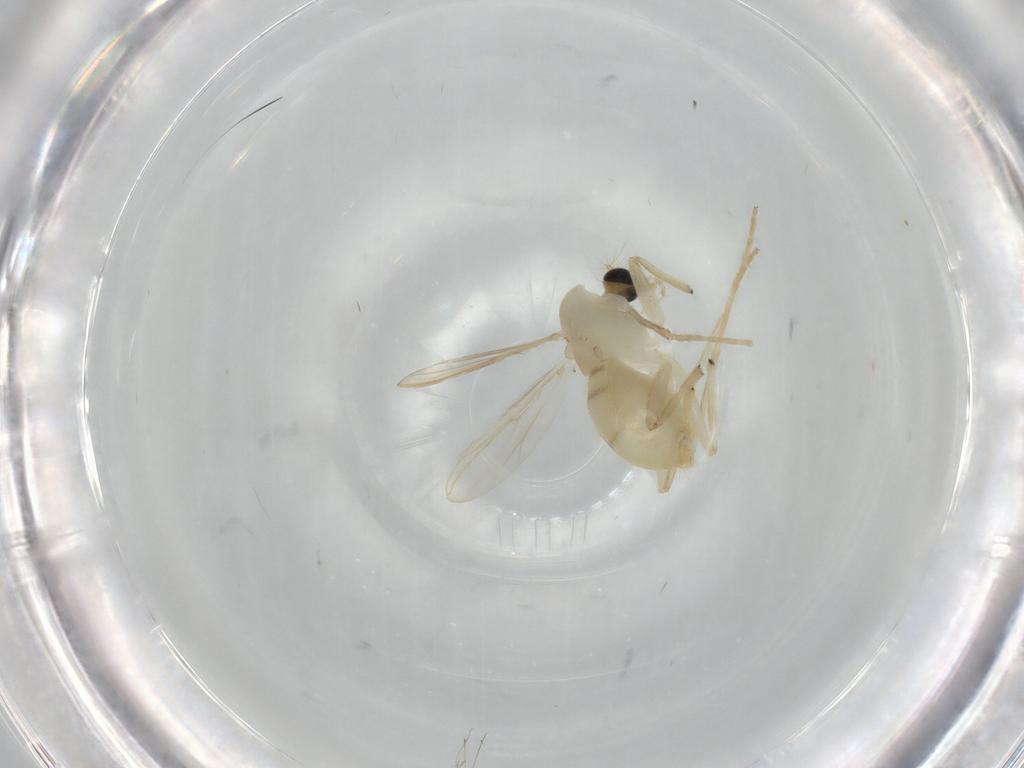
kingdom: Animalia
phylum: Arthropoda
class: Insecta
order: Diptera
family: Chironomidae
